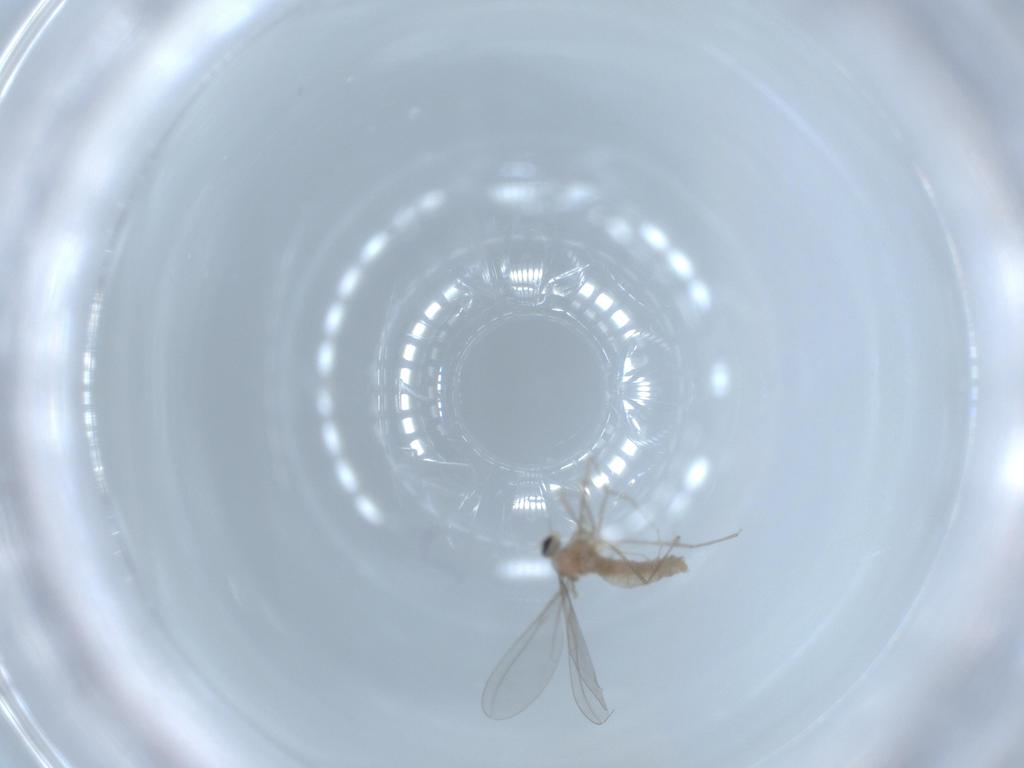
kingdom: Animalia
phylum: Arthropoda
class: Insecta
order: Diptera
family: Cecidomyiidae
